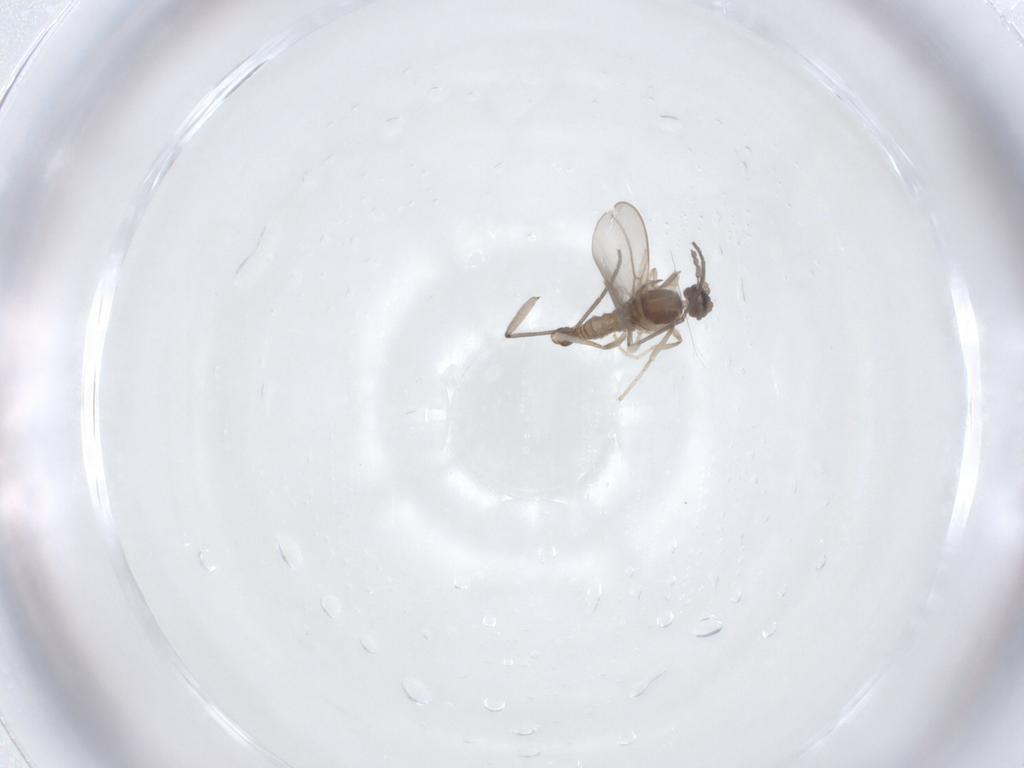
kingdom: Animalia
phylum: Arthropoda
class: Insecta
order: Diptera
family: Cecidomyiidae
